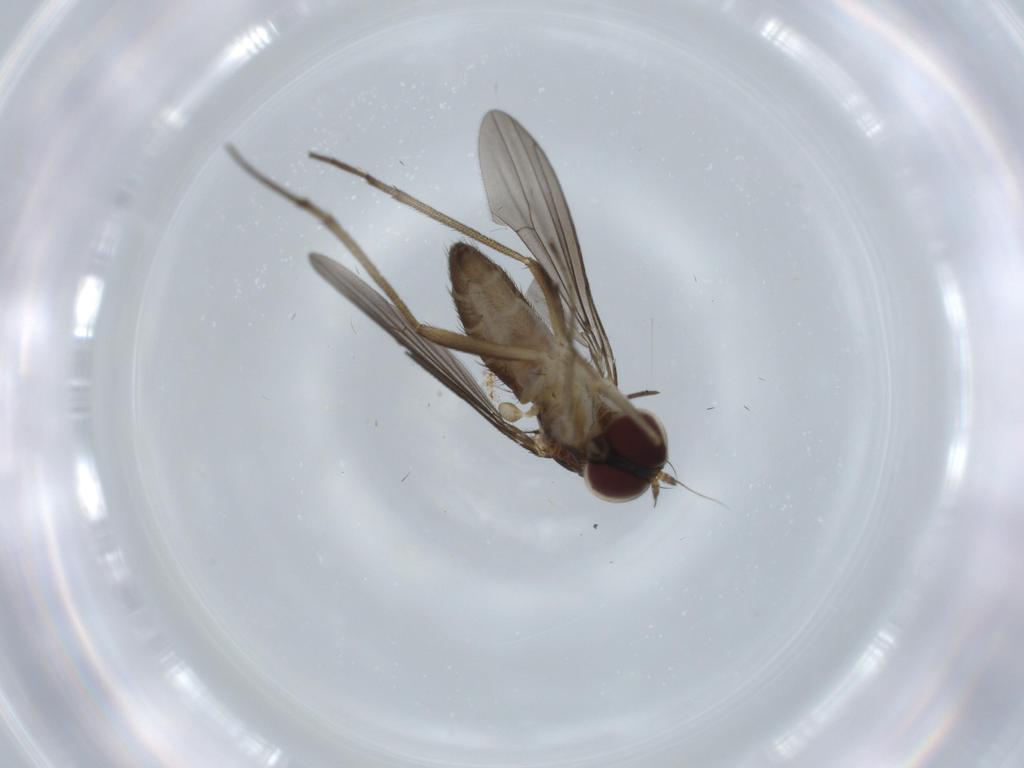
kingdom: Animalia
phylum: Arthropoda
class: Insecta
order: Diptera
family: Dolichopodidae
